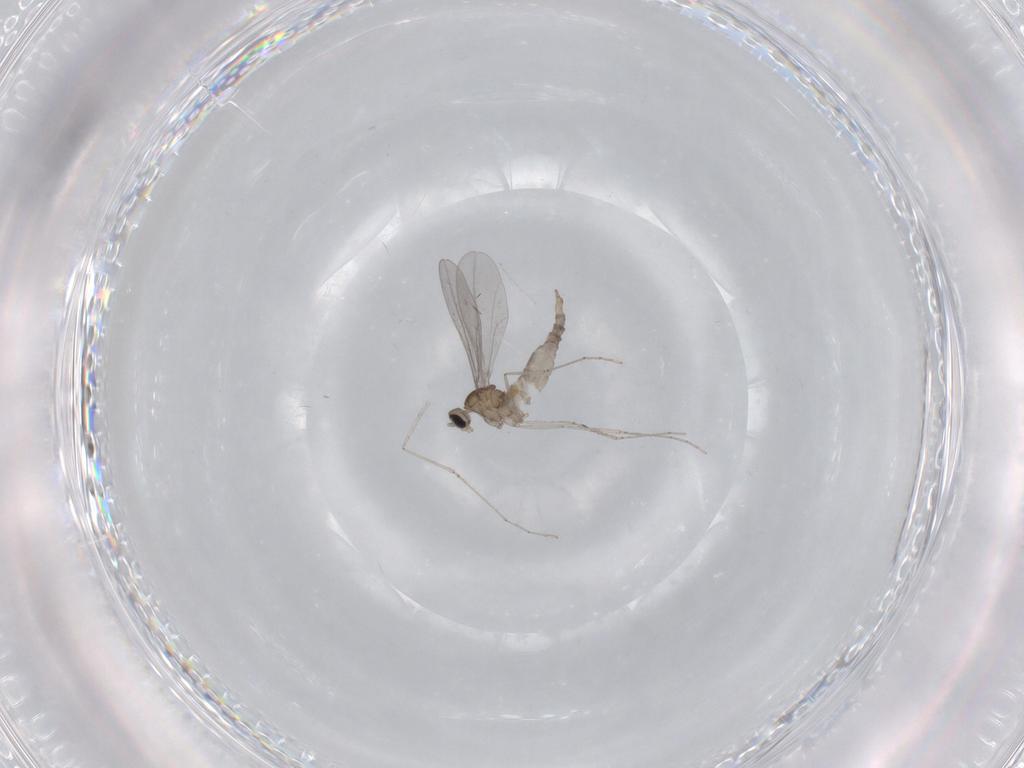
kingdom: Animalia
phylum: Arthropoda
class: Insecta
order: Diptera
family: Cecidomyiidae
